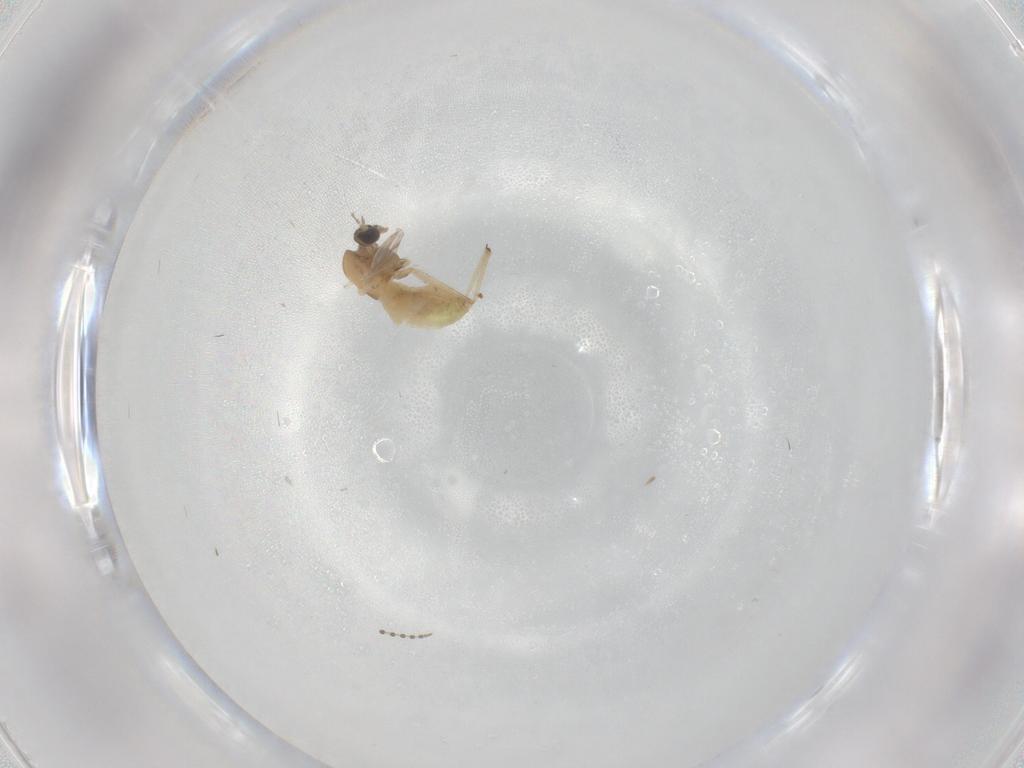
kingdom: Animalia
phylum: Arthropoda
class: Insecta
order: Diptera
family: Chironomidae
